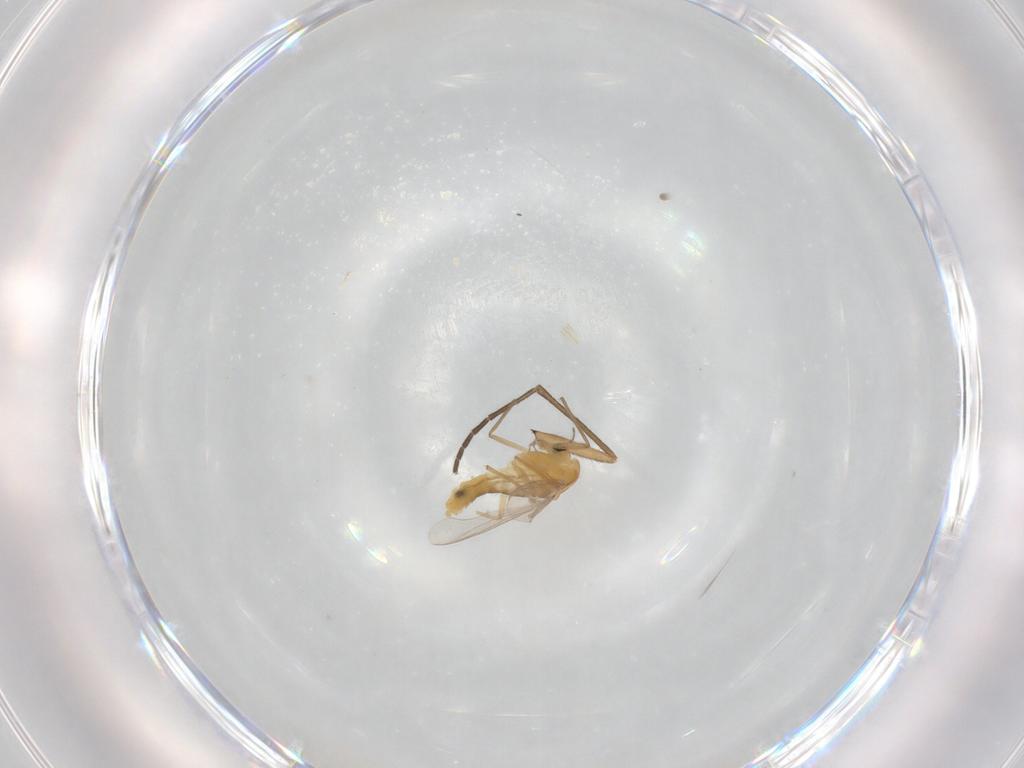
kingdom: Animalia
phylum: Arthropoda
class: Insecta
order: Diptera
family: Chironomidae
